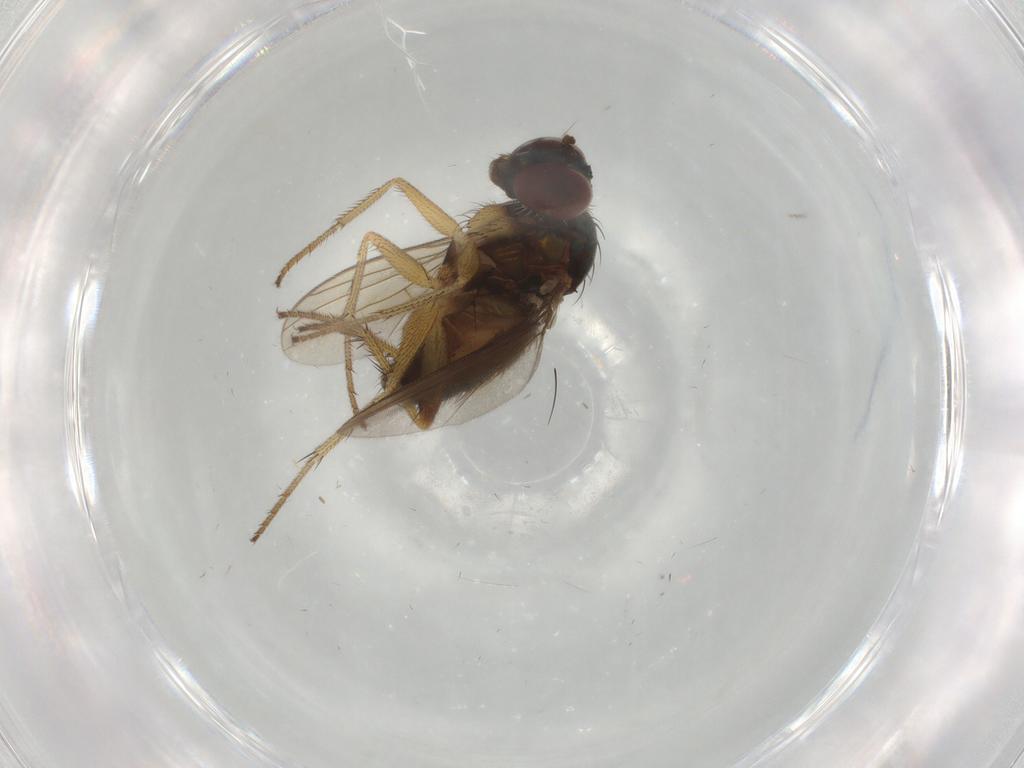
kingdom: Animalia
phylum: Arthropoda
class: Insecta
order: Diptera
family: Dolichopodidae
